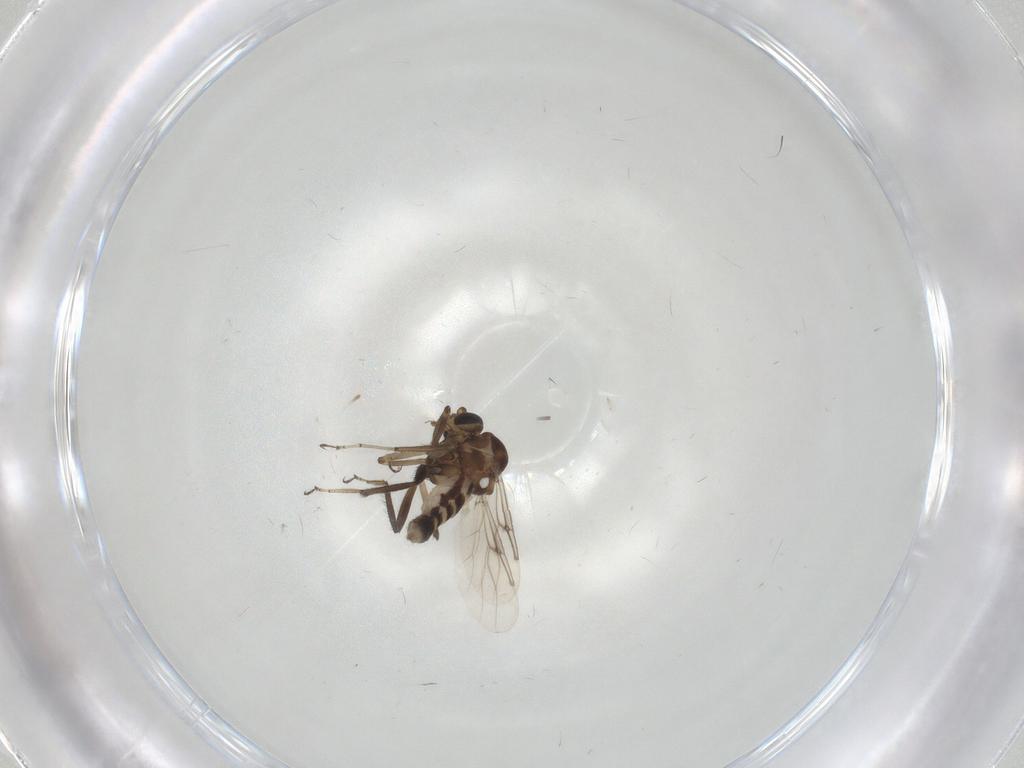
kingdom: Animalia
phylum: Arthropoda
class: Insecta
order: Diptera
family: Ceratopogonidae
